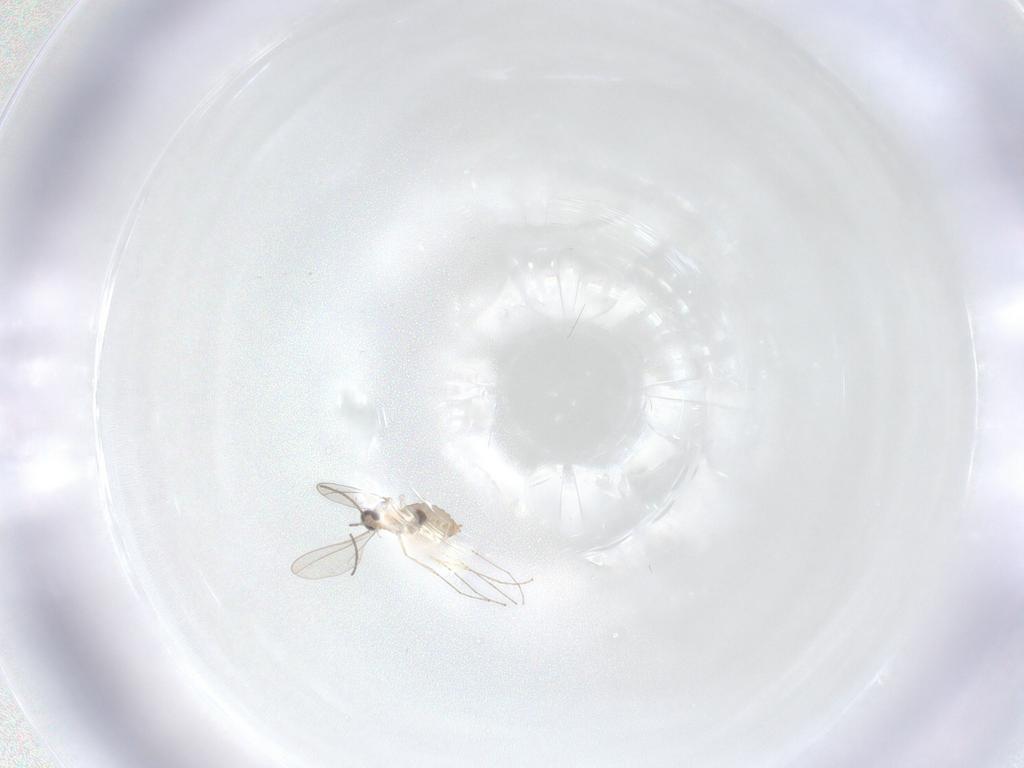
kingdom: Animalia
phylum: Arthropoda
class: Insecta
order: Diptera
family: Cecidomyiidae
